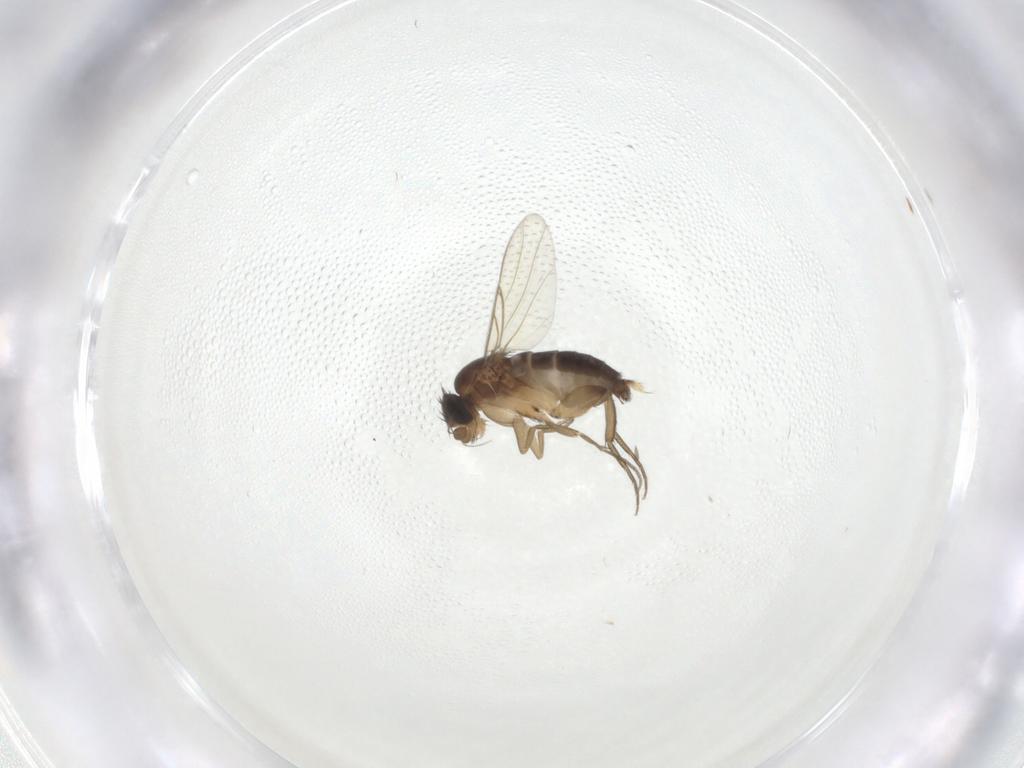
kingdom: Animalia
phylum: Arthropoda
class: Insecta
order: Diptera
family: Phoridae
